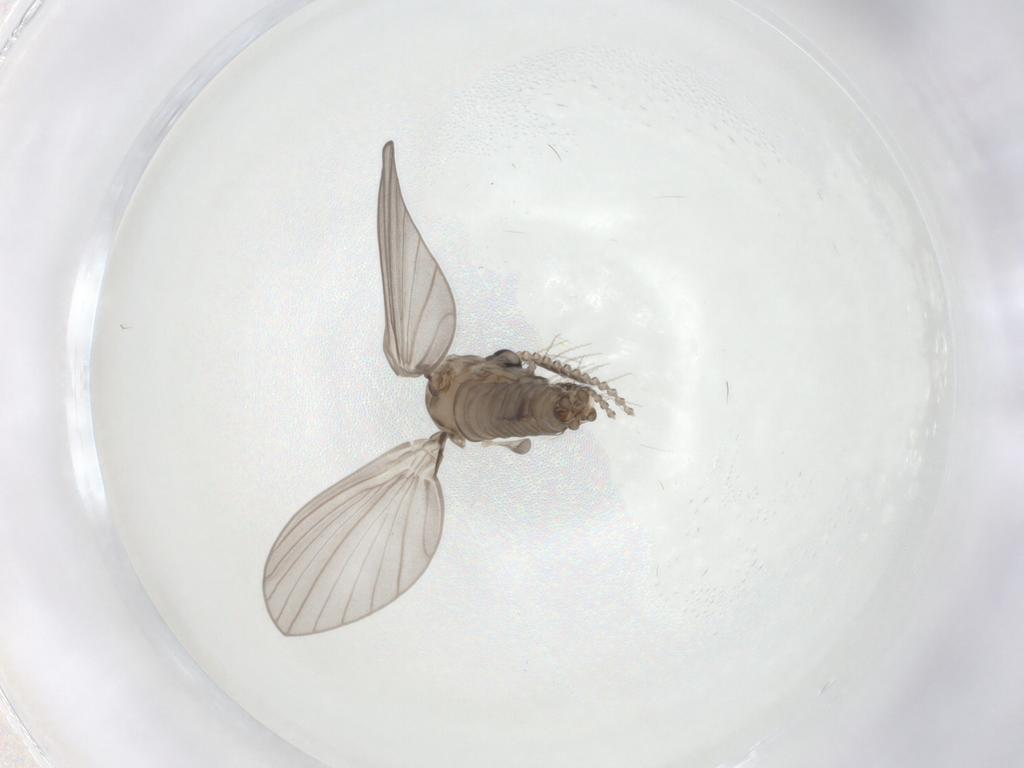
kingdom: Animalia
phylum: Arthropoda
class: Insecta
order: Diptera
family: Psychodidae
